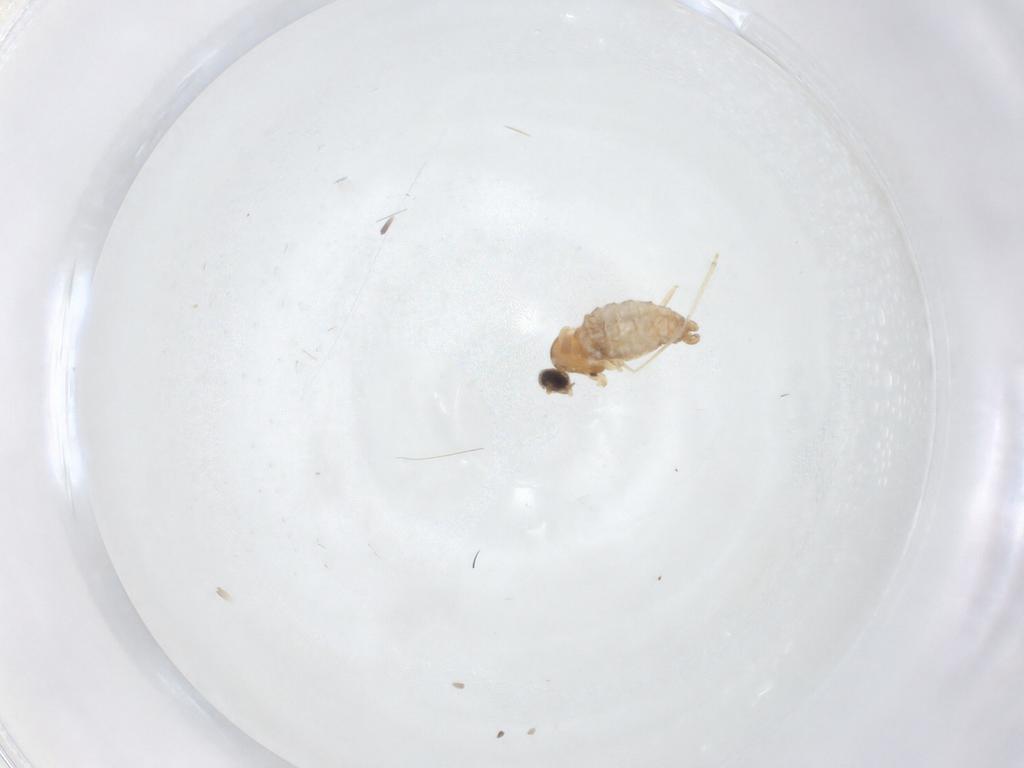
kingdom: Animalia
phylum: Arthropoda
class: Insecta
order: Diptera
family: Cecidomyiidae
